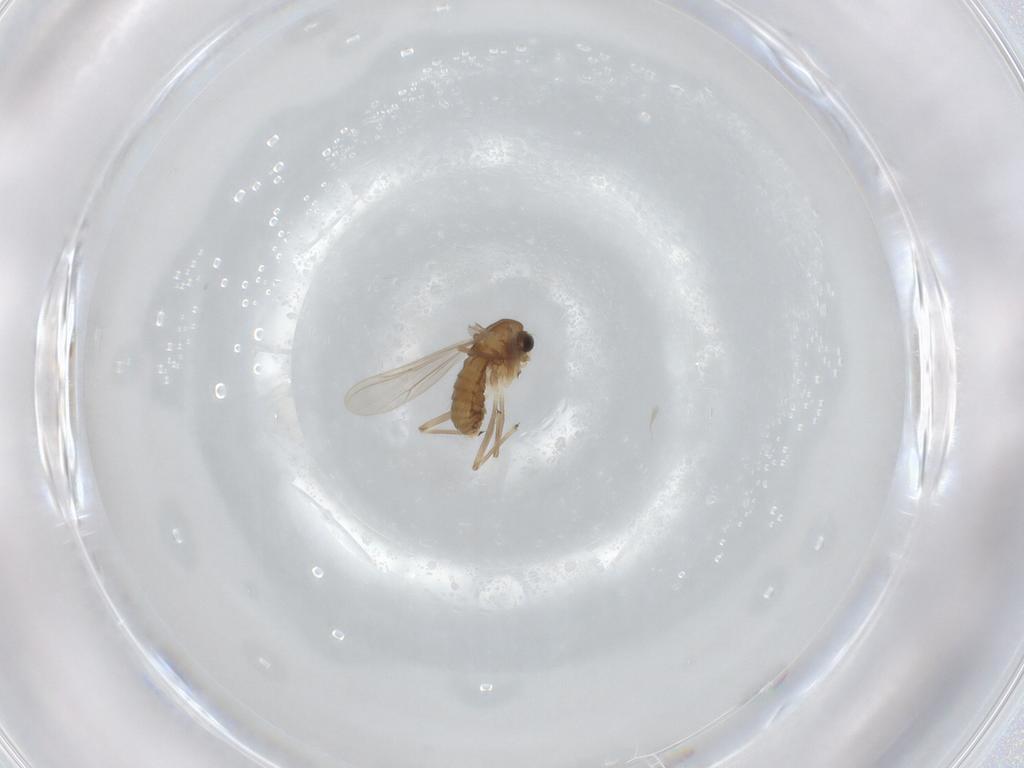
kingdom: Animalia
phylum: Arthropoda
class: Insecta
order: Diptera
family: Chironomidae
